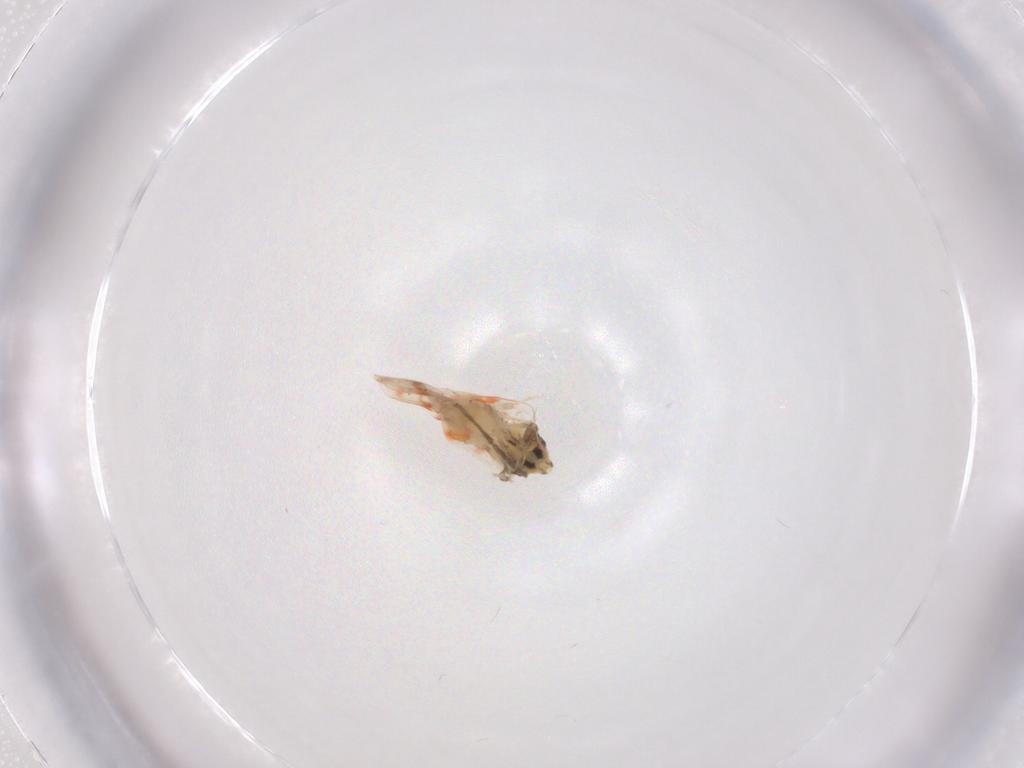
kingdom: Animalia
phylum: Arthropoda
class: Insecta
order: Hemiptera
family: Aleyrodidae
